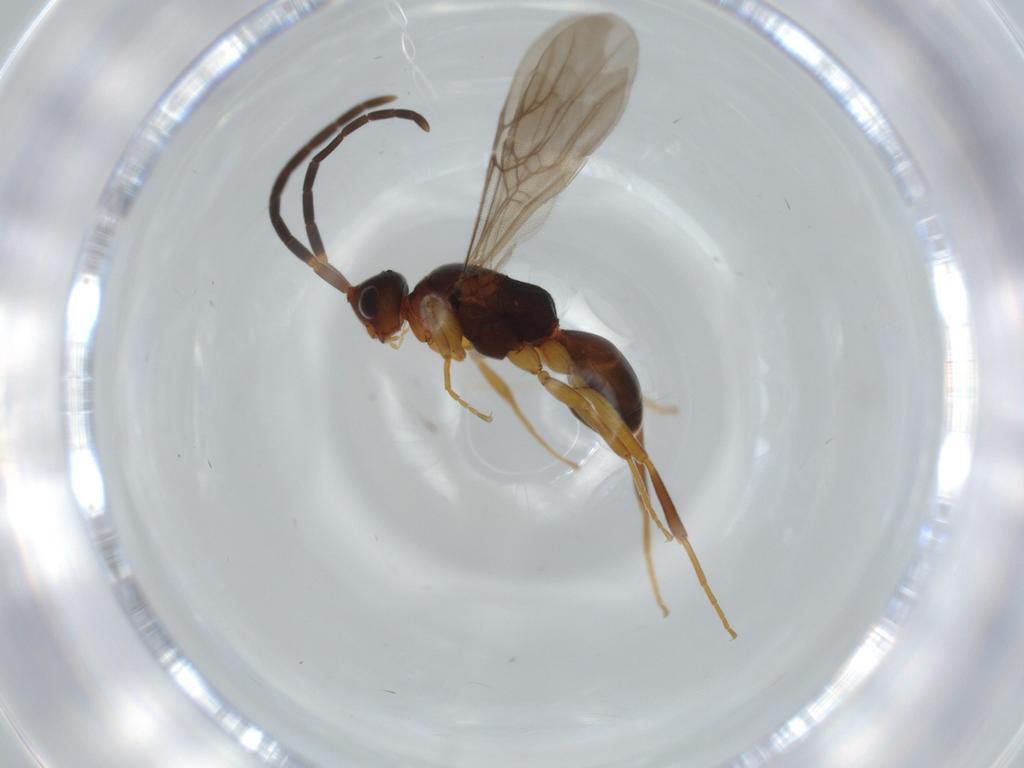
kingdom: Animalia
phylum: Arthropoda
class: Insecta
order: Hymenoptera
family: Embolemidae
